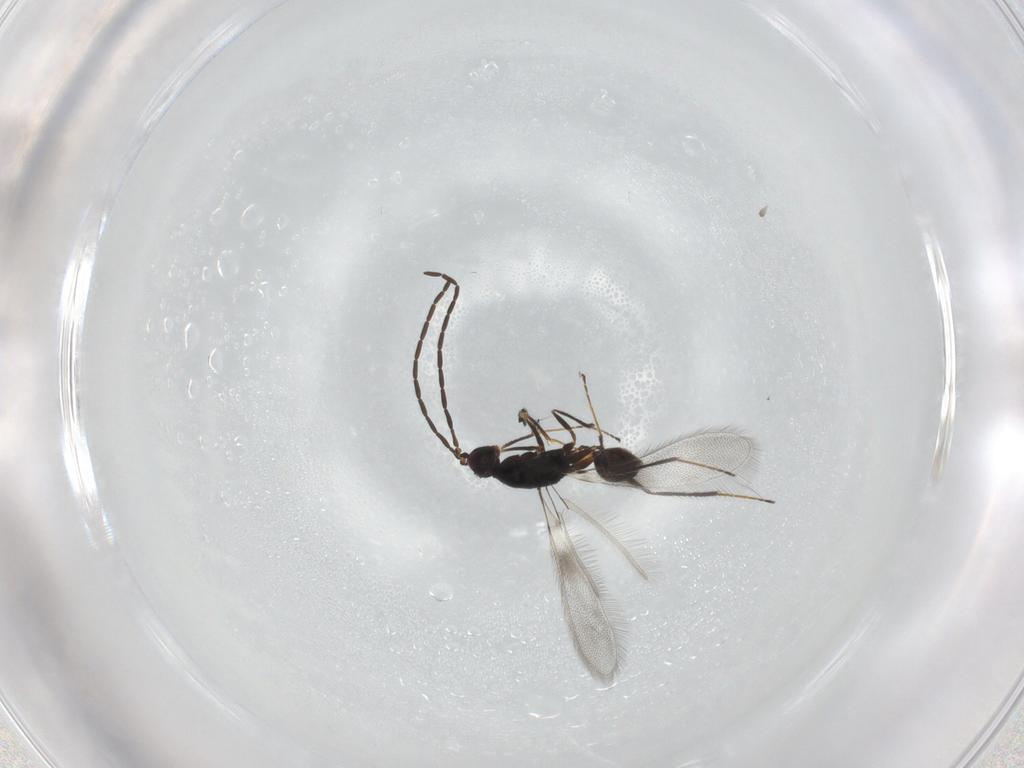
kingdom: Animalia
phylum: Arthropoda
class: Insecta
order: Hymenoptera
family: Mymaridae
